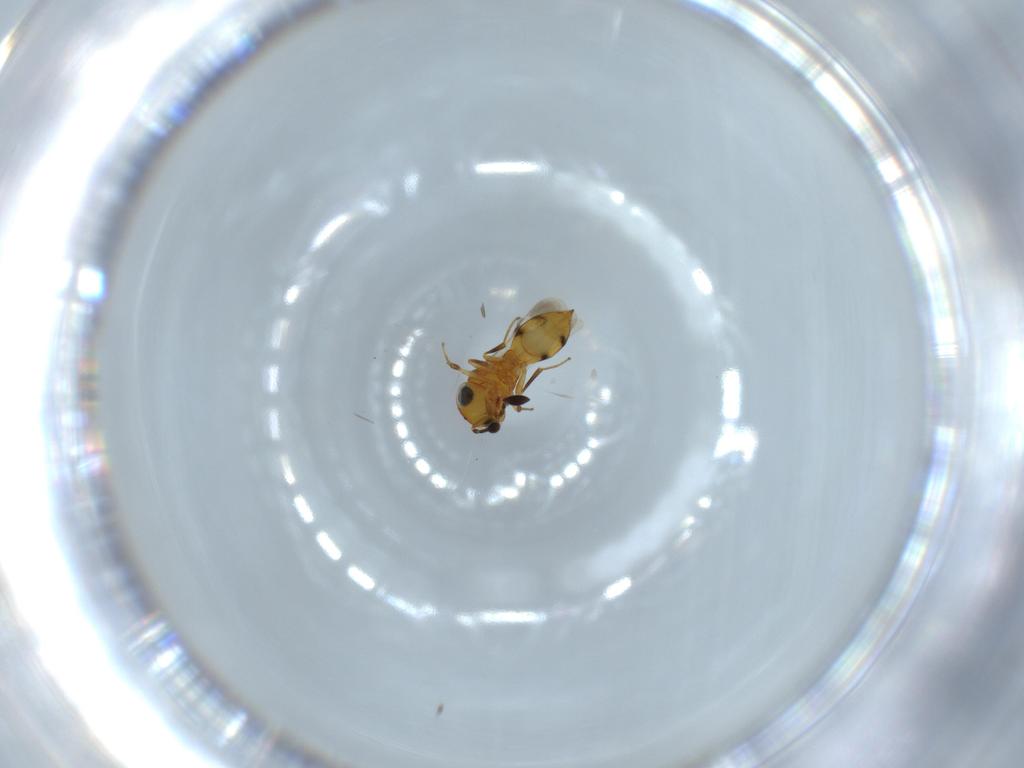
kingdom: Animalia
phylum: Arthropoda
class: Insecta
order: Hymenoptera
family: Scelionidae
